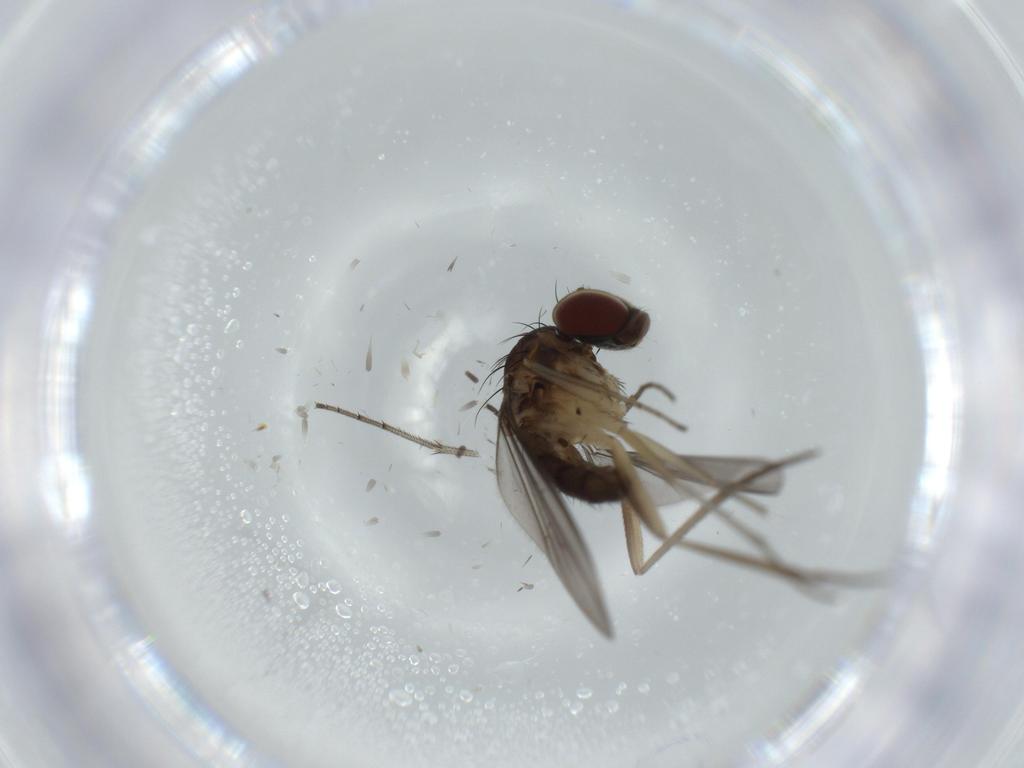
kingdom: Animalia
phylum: Arthropoda
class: Insecta
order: Diptera
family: Dolichopodidae
